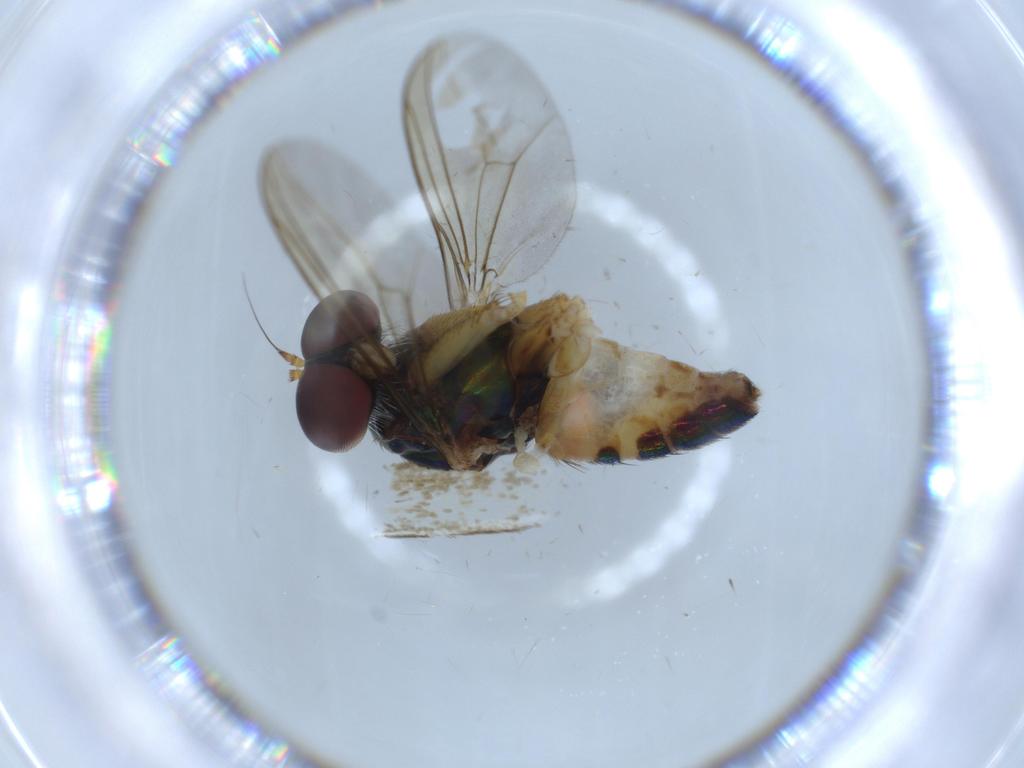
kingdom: Animalia
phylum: Arthropoda
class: Insecta
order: Diptera
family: Dolichopodidae
